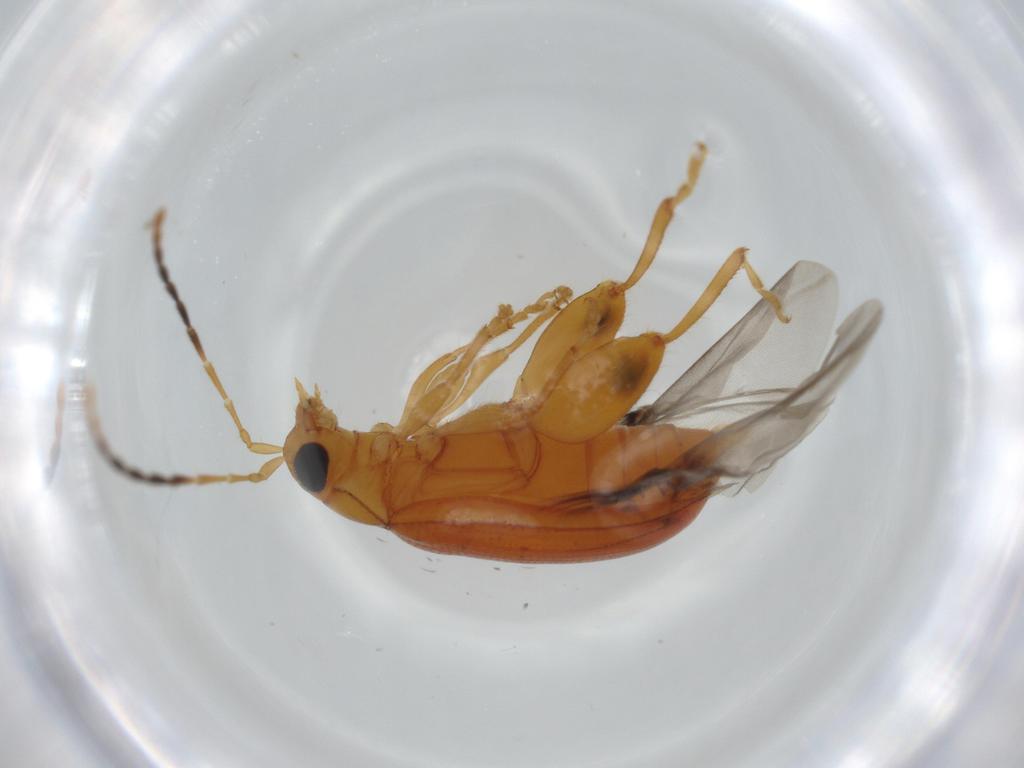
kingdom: Animalia
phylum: Arthropoda
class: Insecta
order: Coleoptera
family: Chrysomelidae
